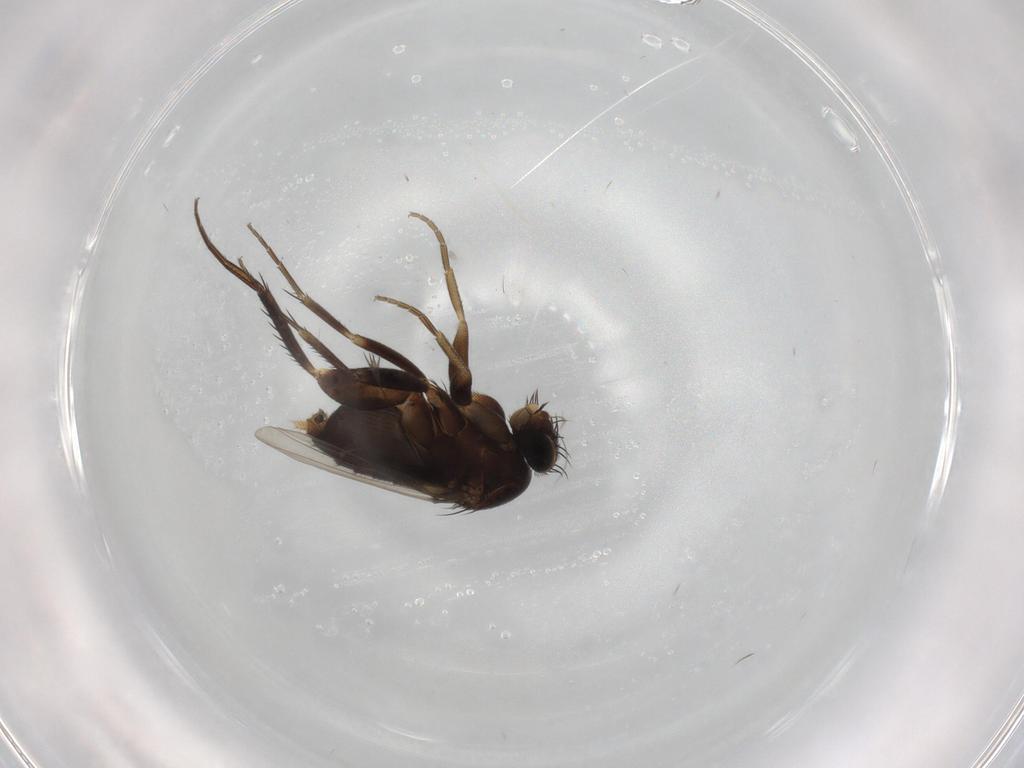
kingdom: Animalia
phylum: Arthropoda
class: Insecta
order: Diptera
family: Phoridae
